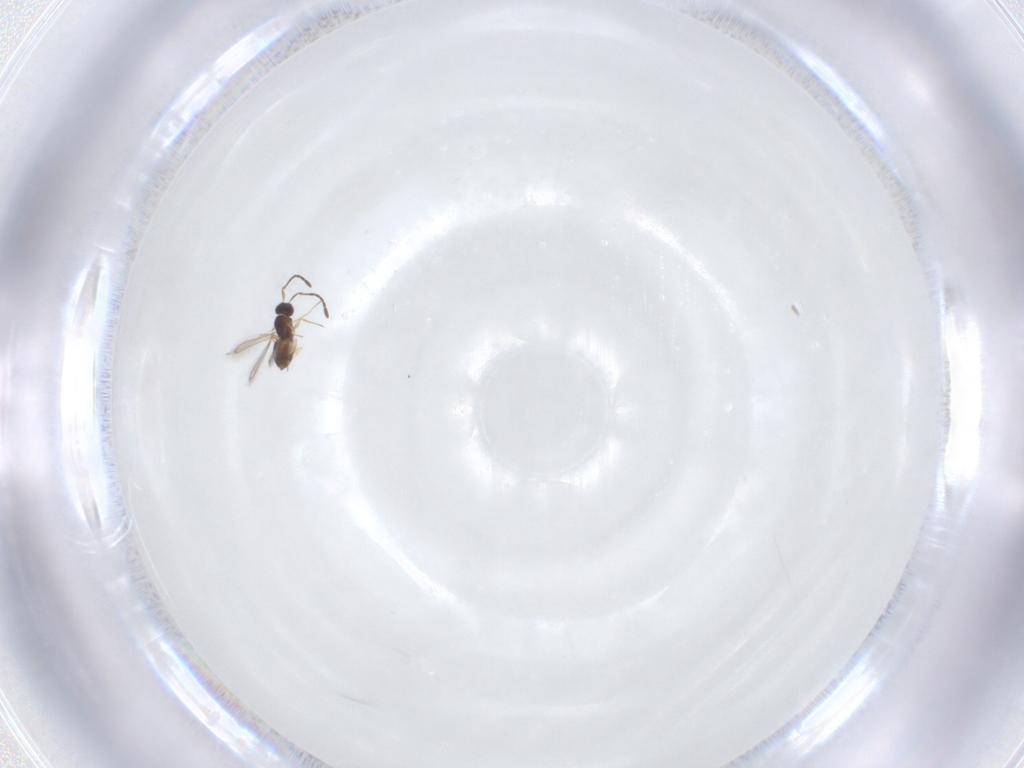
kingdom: Animalia
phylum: Arthropoda
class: Insecta
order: Hymenoptera
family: Mymaridae
